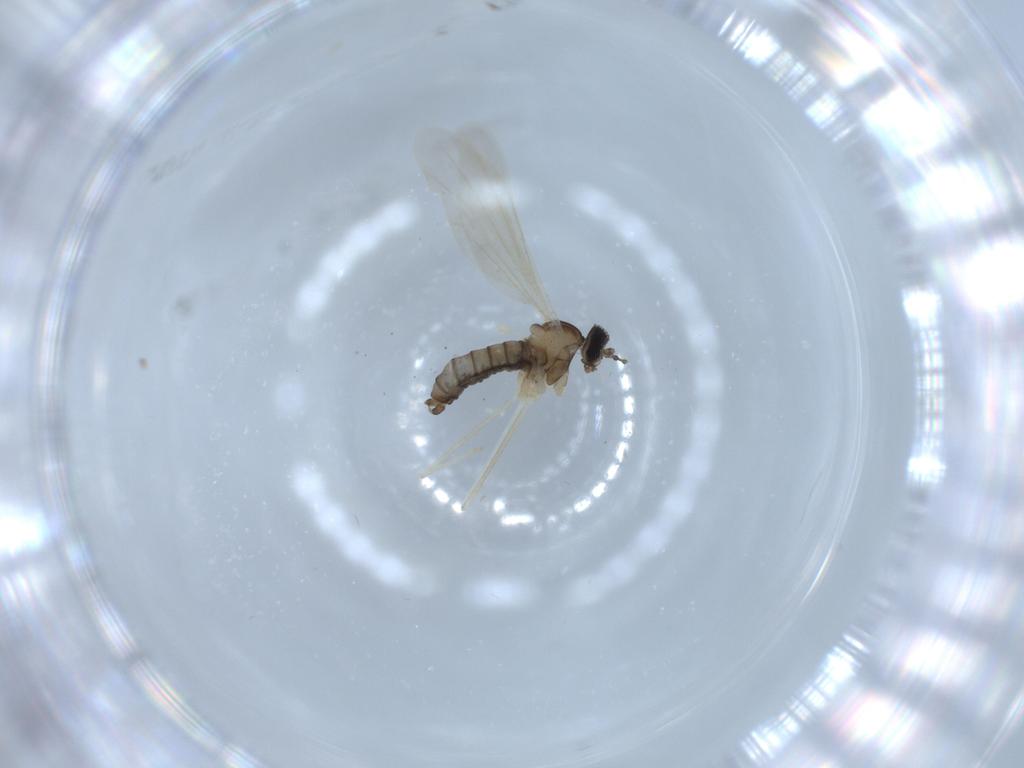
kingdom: Animalia
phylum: Arthropoda
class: Insecta
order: Diptera
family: Cecidomyiidae
